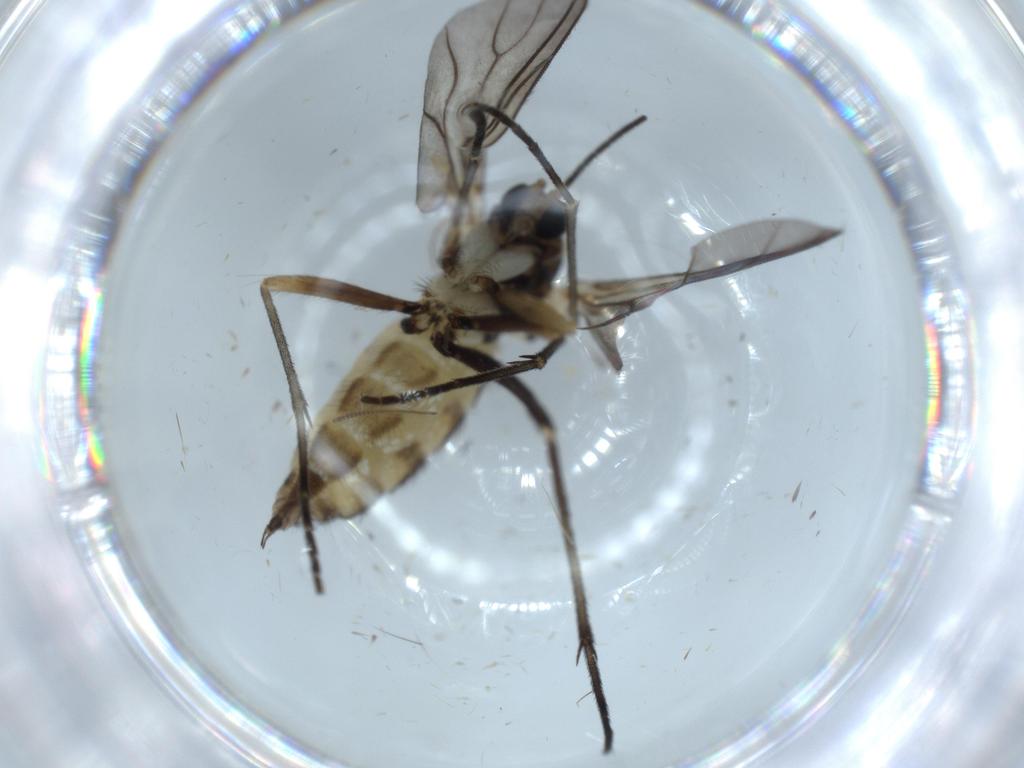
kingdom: Animalia
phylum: Arthropoda
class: Insecta
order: Diptera
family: Sciaridae
